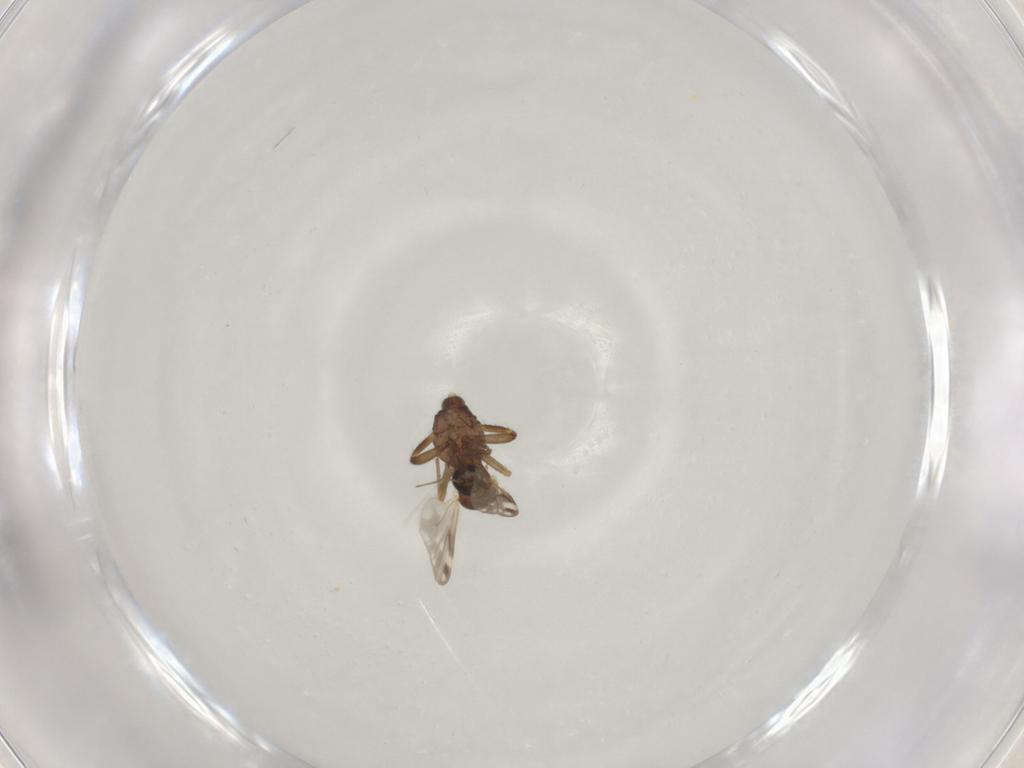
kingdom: Animalia
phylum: Arthropoda
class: Insecta
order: Diptera
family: Ceratopogonidae
